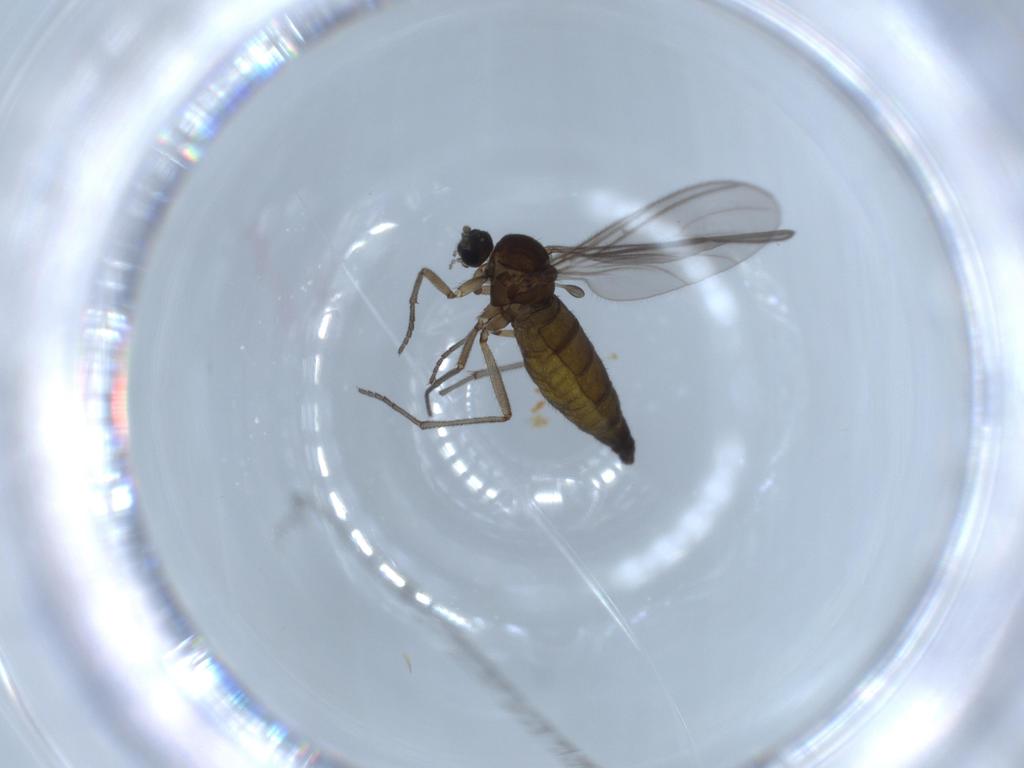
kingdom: Animalia
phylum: Arthropoda
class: Insecta
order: Diptera
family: Sciaridae
